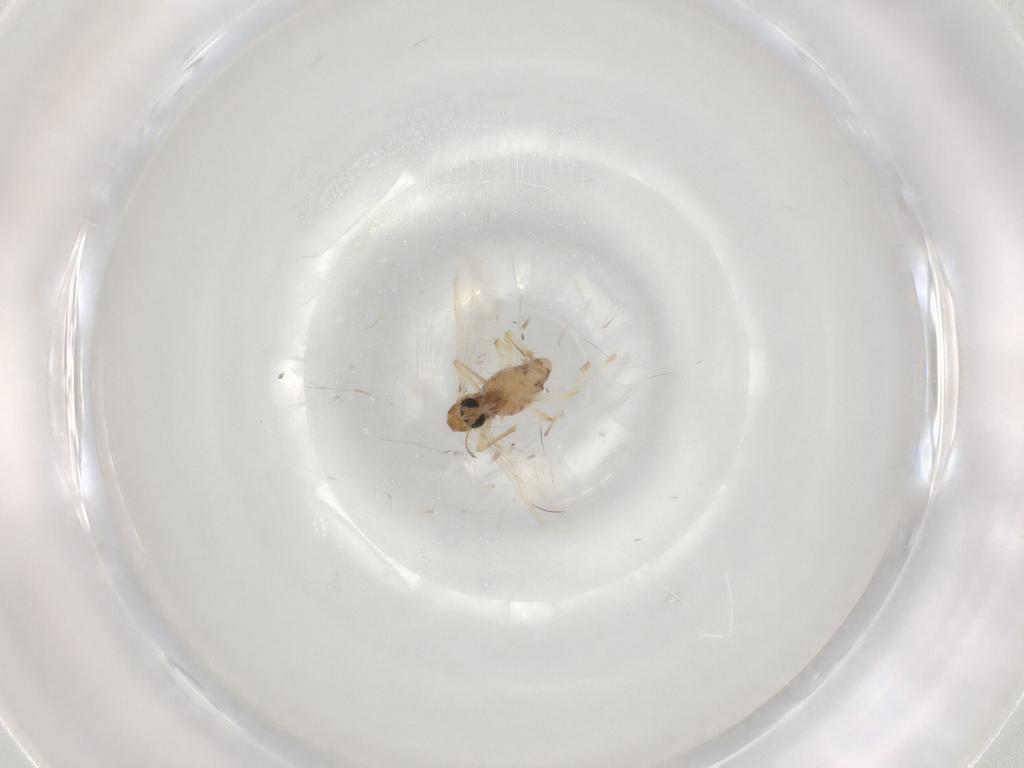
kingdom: Animalia
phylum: Arthropoda
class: Insecta
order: Diptera
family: Chironomidae
